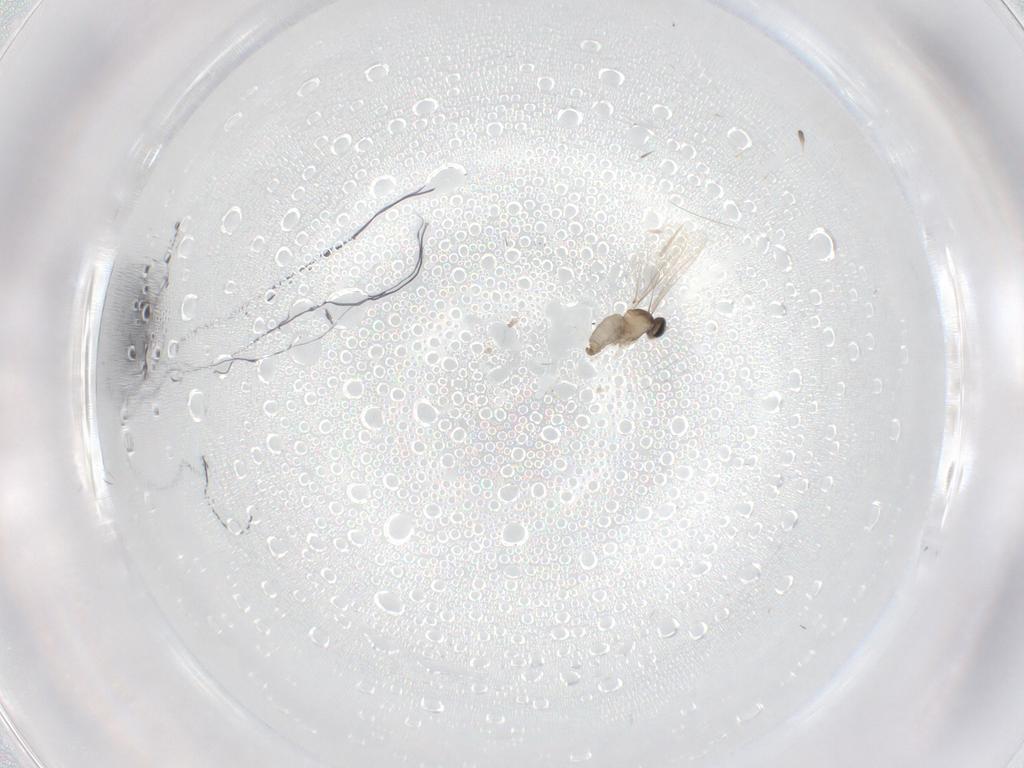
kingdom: Animalia
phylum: Arthropoda
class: Insecta
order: Diptera
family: Cecidomyiidae
